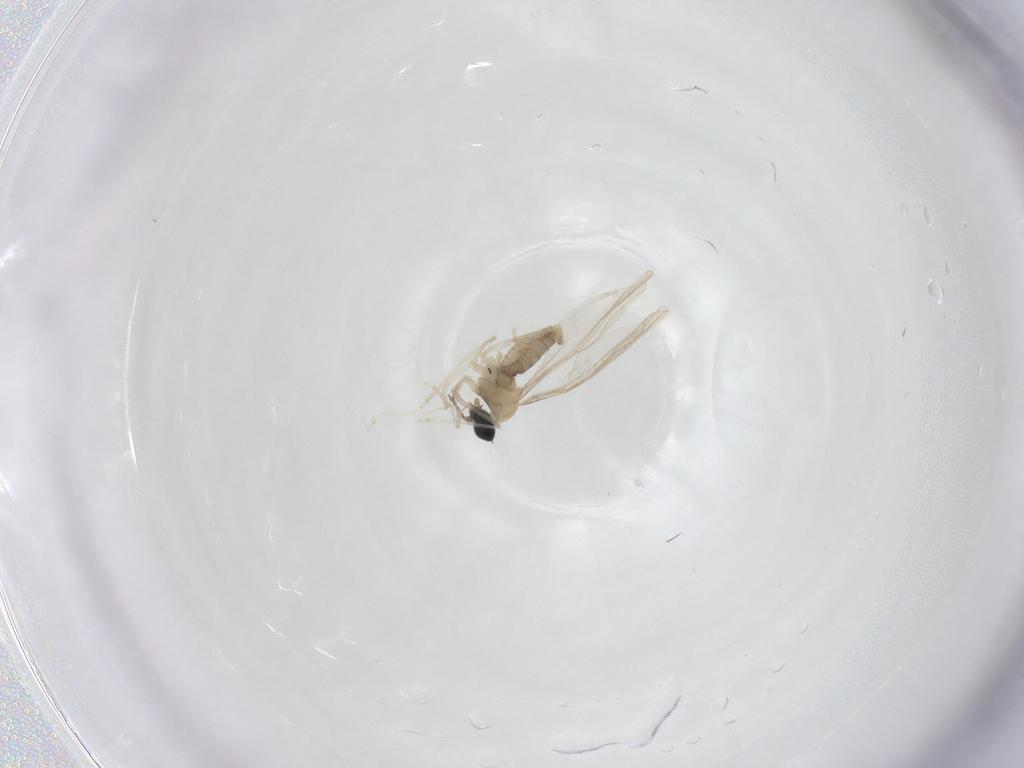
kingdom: Animalia
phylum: Arthropoda
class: Insecta
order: Diptera
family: Cecidomyiidae
